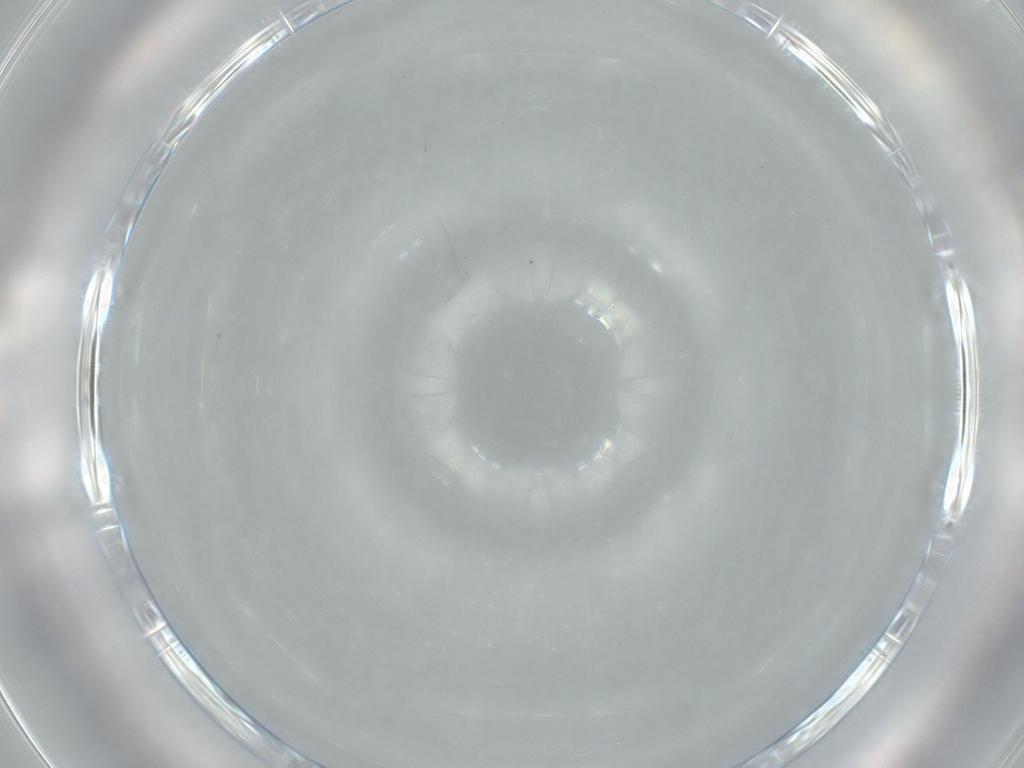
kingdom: Animalia
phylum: Arthropoda
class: Insecta
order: Diptera
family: Cecidomyiidae
